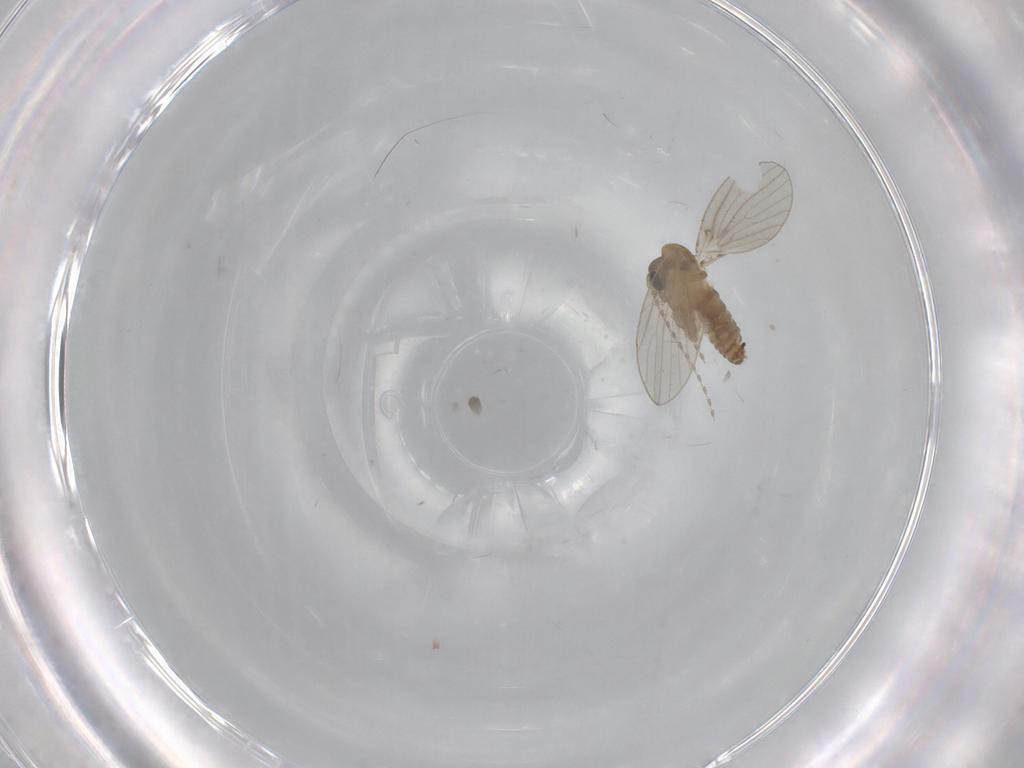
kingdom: Animalia
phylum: Arthropoda
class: Insecta
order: Diptera
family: Psychodidae
